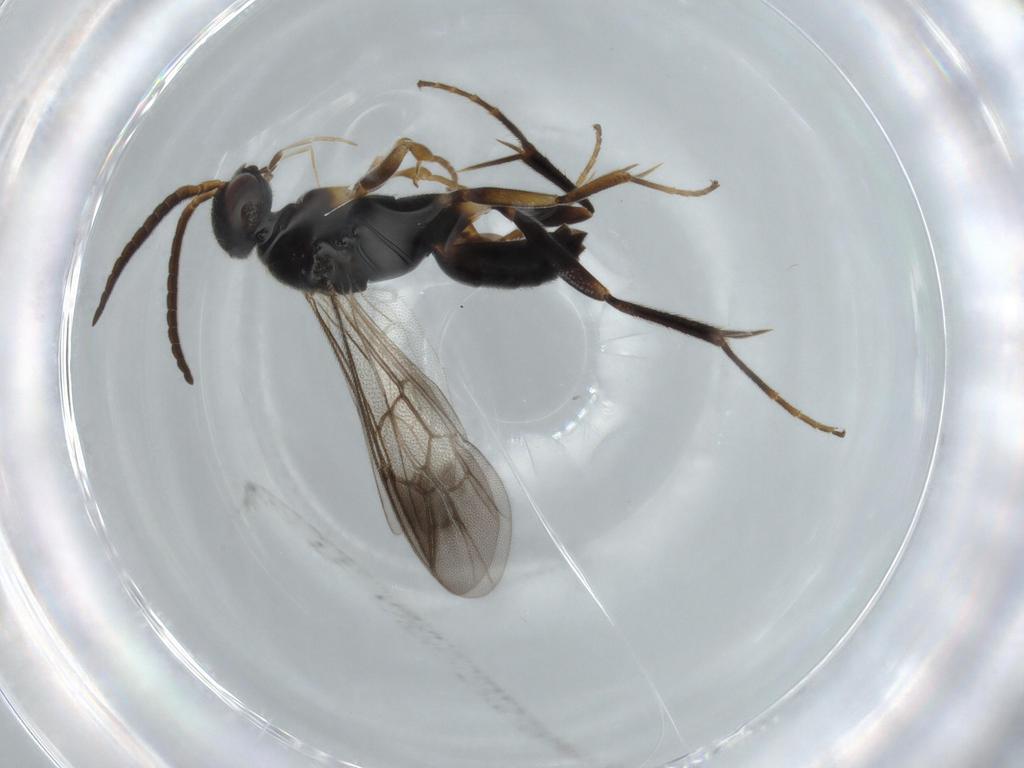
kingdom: Animalia
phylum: Arthropoda
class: Insecta
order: Hymenoptera
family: Pompilidae
